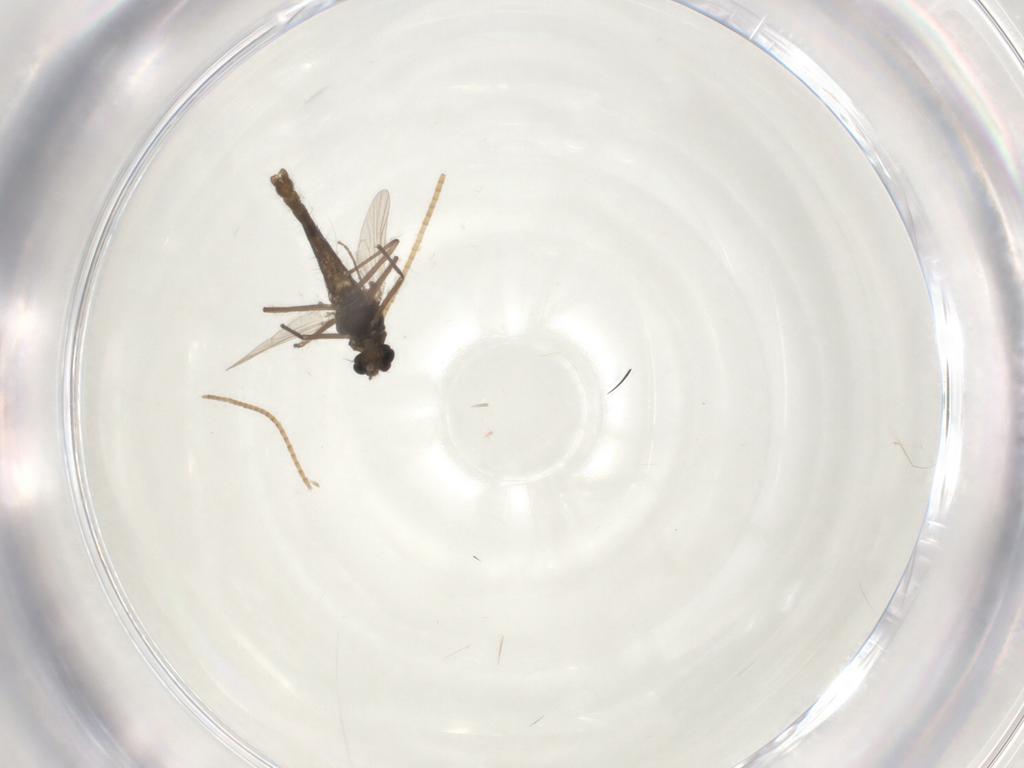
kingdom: Animalia
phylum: Arthropoda
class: Insecta
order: Diptera
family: Chironomidae
